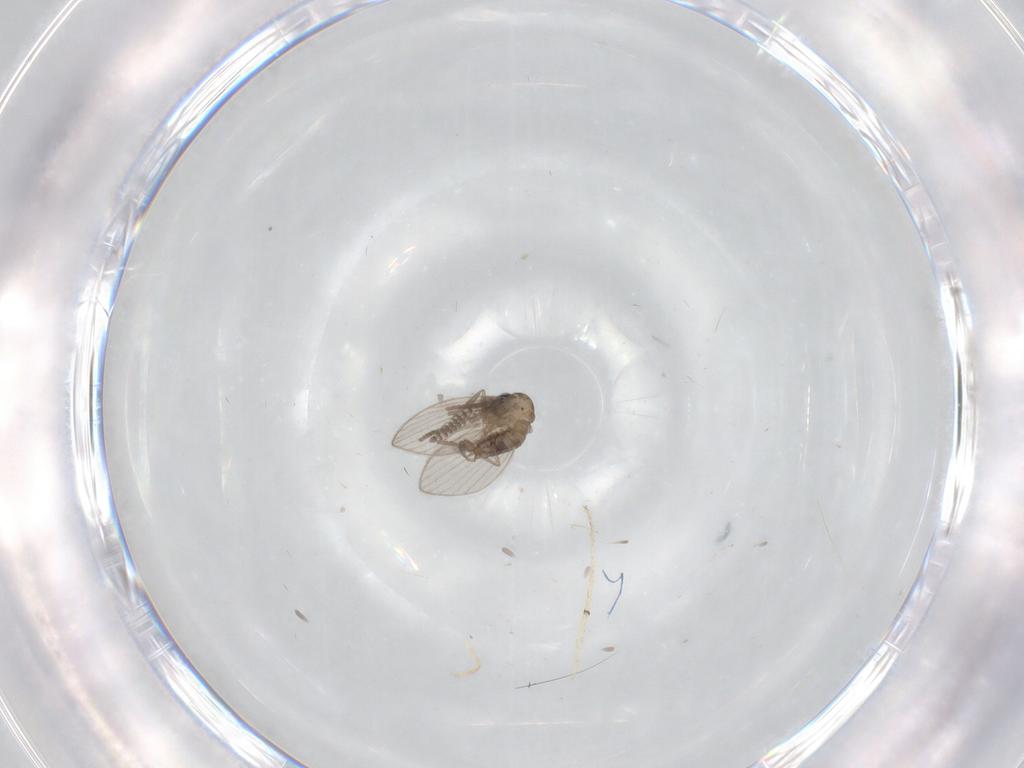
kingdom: Animalia
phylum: Arthropoda
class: Insecta
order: Diptera
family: Psychodidae
